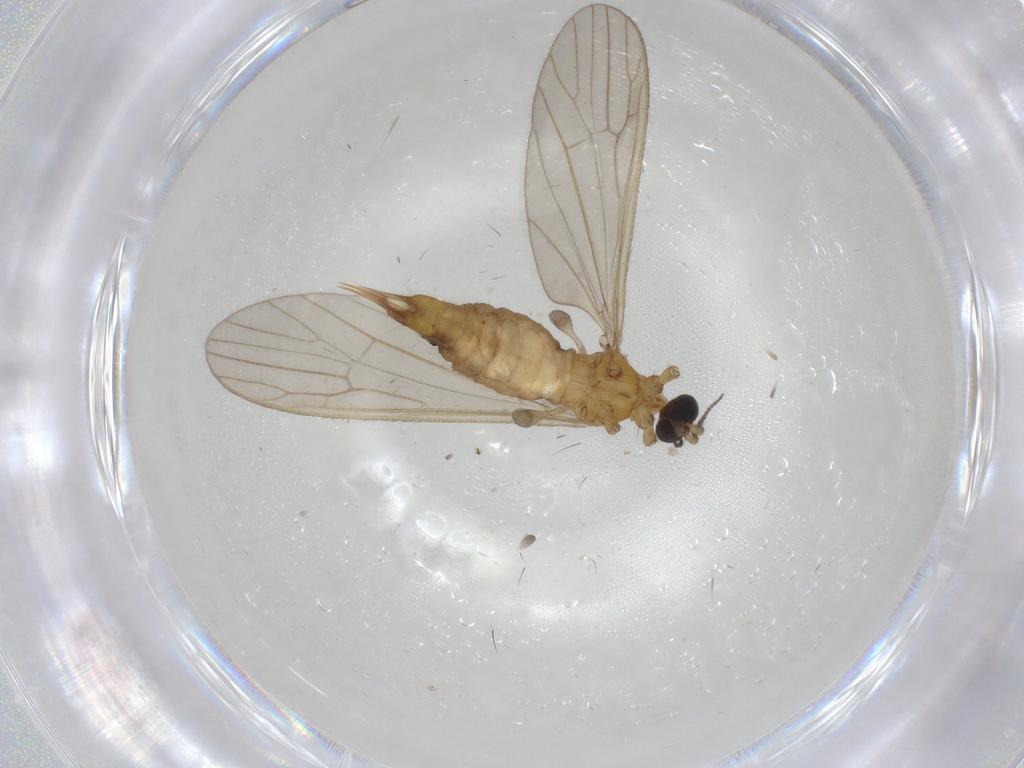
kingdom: Animalia
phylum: Arthropoda
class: Insecta
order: Diptera
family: Limoniidae
